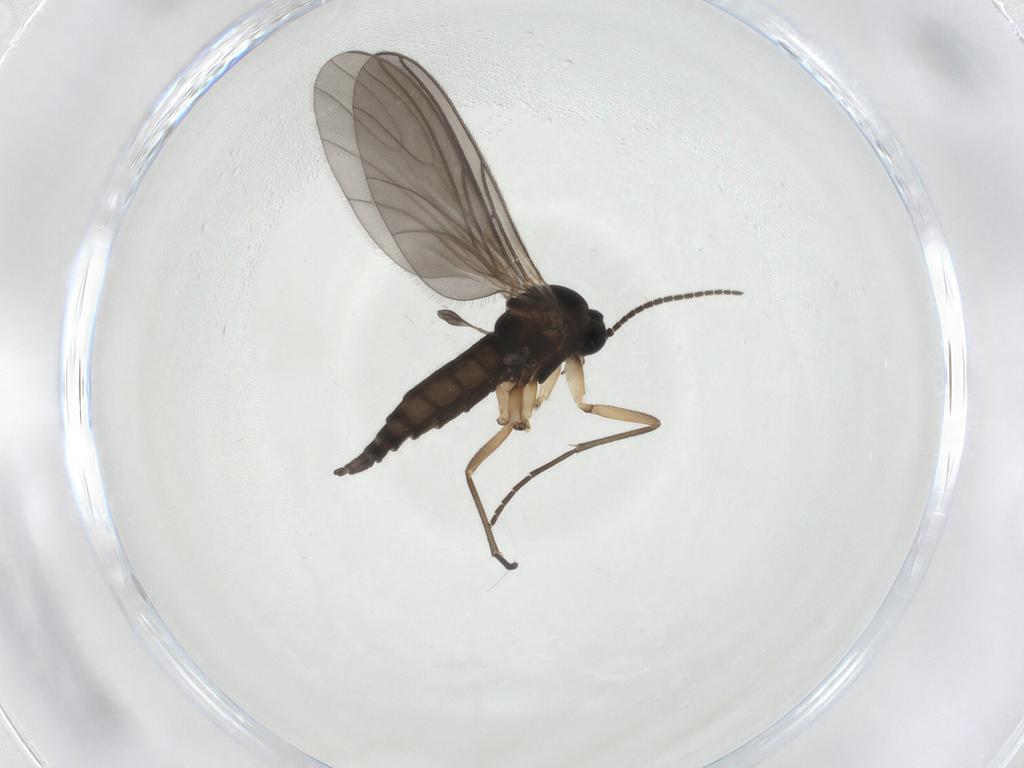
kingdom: Animalia
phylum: Arthropoda
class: Insecta
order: Diptera
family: Sciaridae
